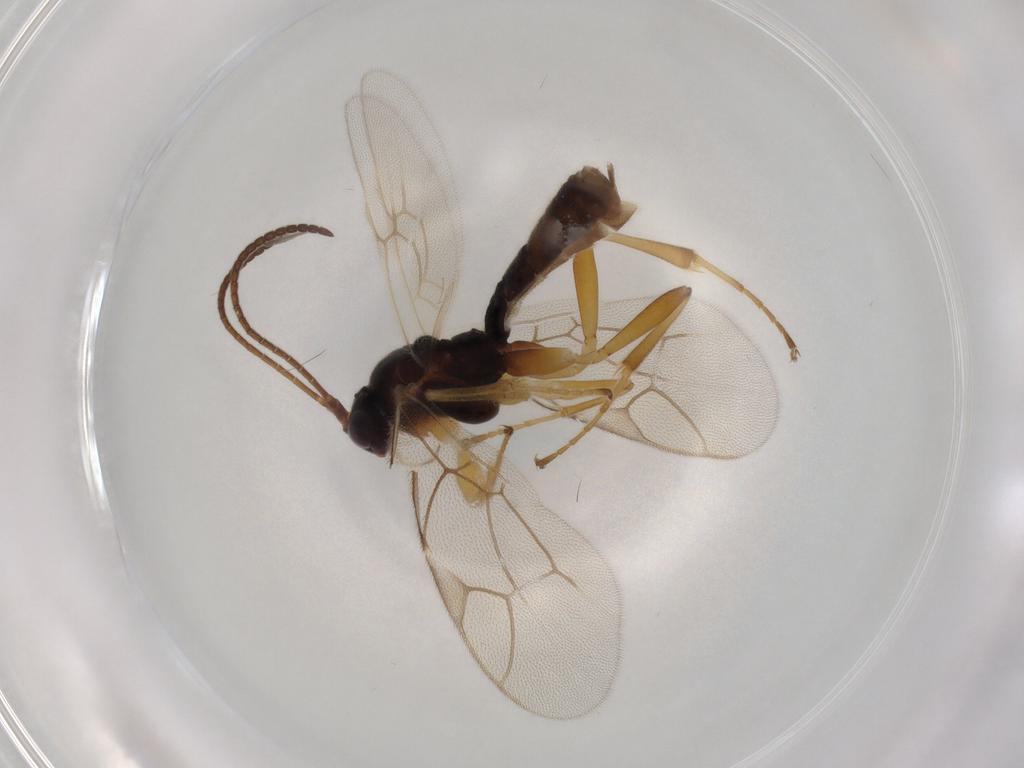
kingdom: Animalia
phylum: Arthropoda
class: Insecta
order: Hymenoptera
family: Ichneumonidae
